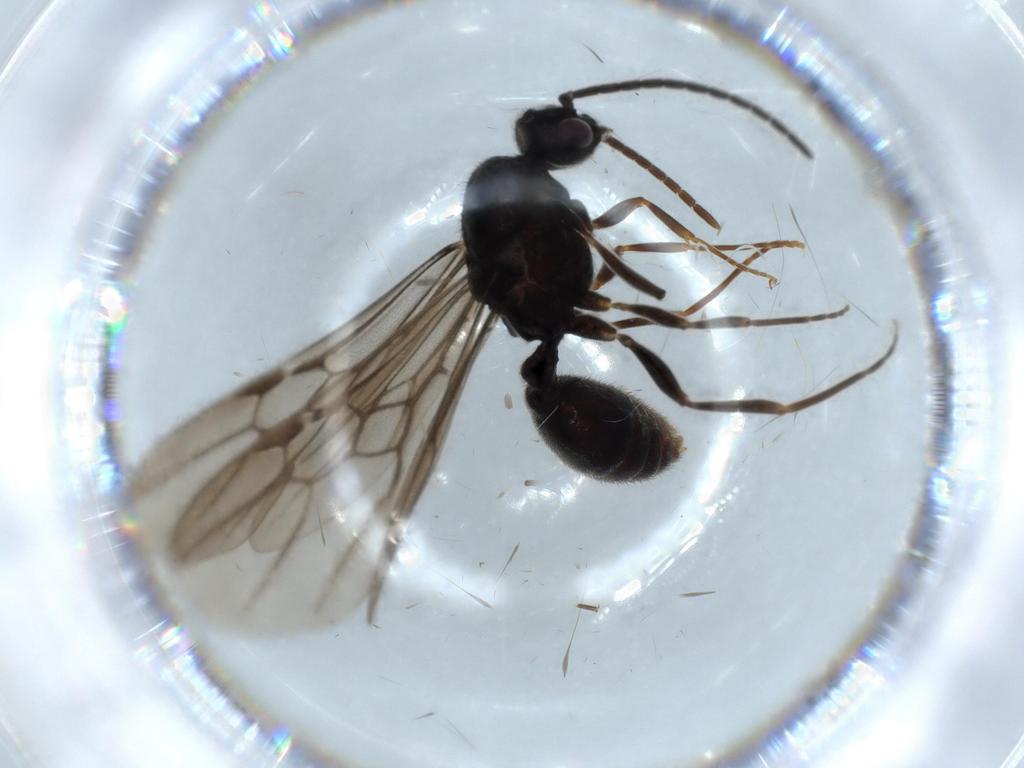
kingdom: Animalia
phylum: Arthropoda
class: Insecta
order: Hymenoptera
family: Formicidae
